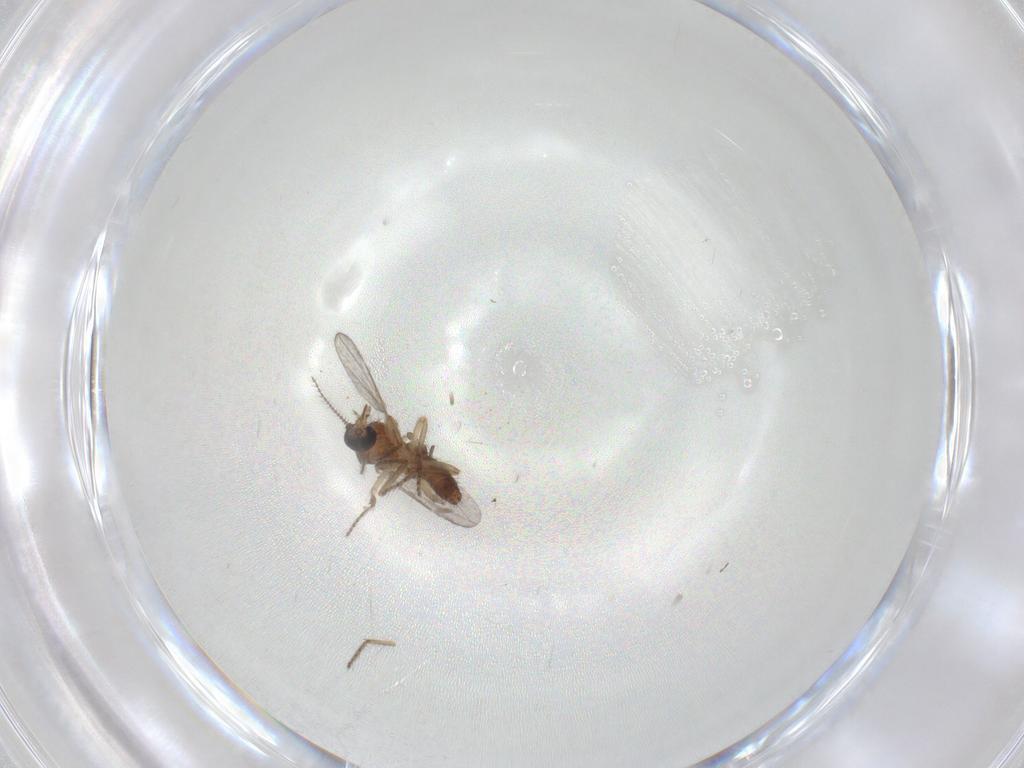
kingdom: Animalia
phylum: Arthropoda
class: Insecta
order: Diptera
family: Ceratopogonidae
